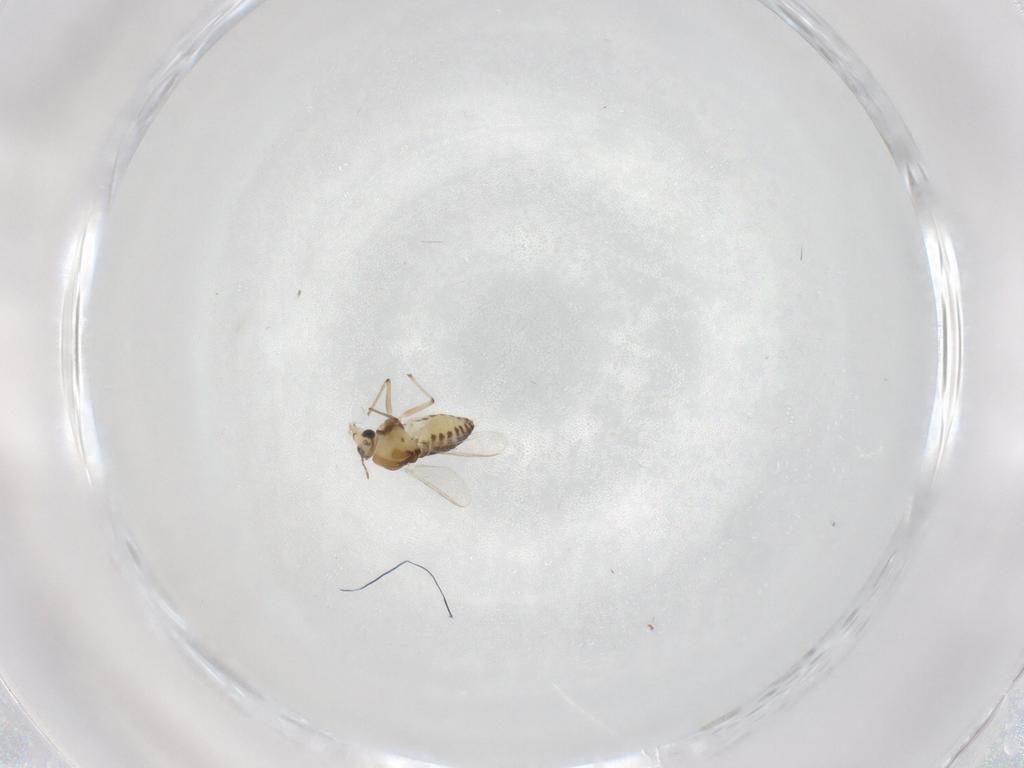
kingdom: Animalia
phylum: Arthropoda
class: Insecta
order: Diptera
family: Chironomidae
